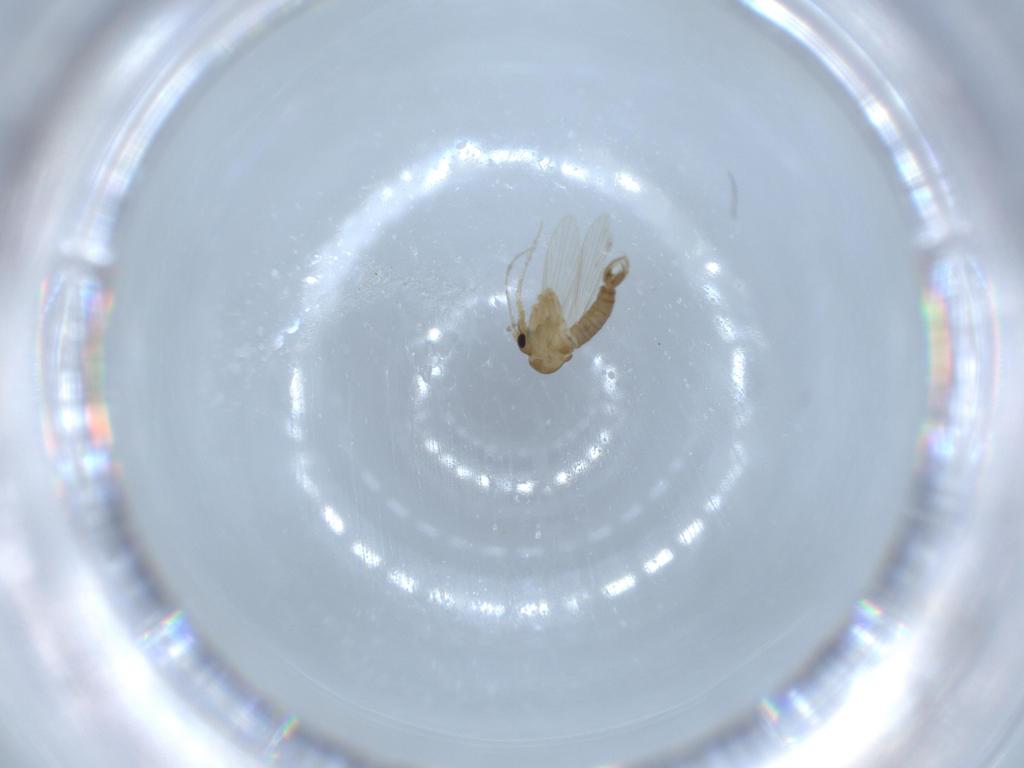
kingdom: Animalia
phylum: Arthropoda
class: Insecta
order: Diptera
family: Psychodidae
